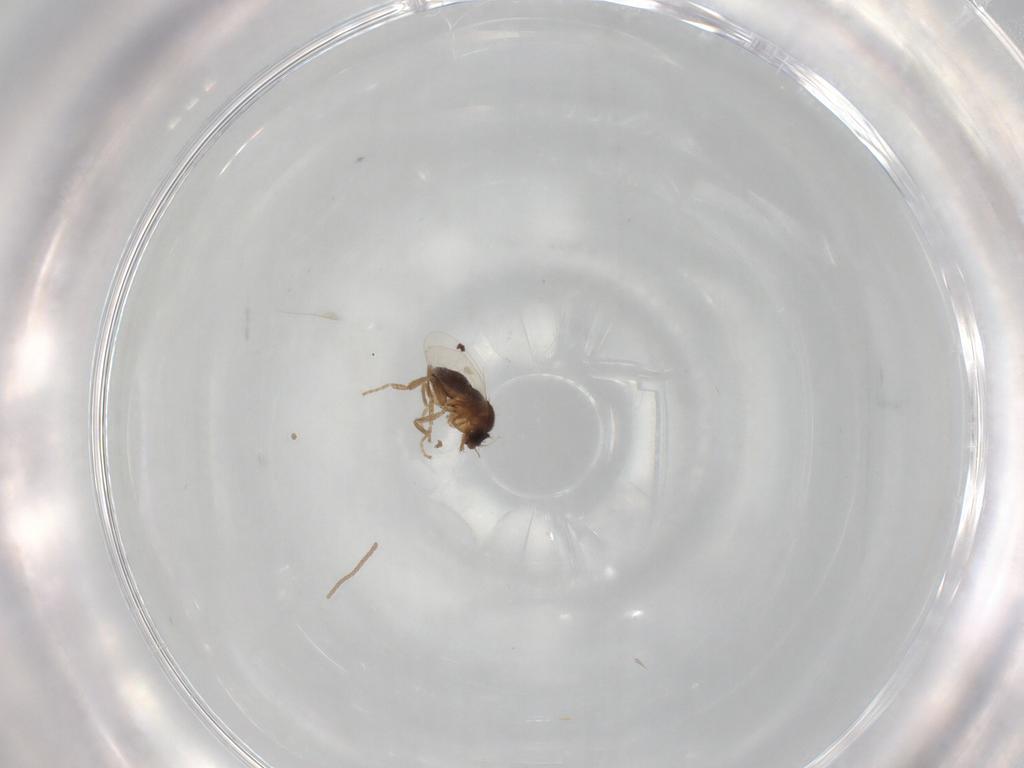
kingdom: Animalia
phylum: Arthropoda
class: Insecta
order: Diptera
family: Phoridae
